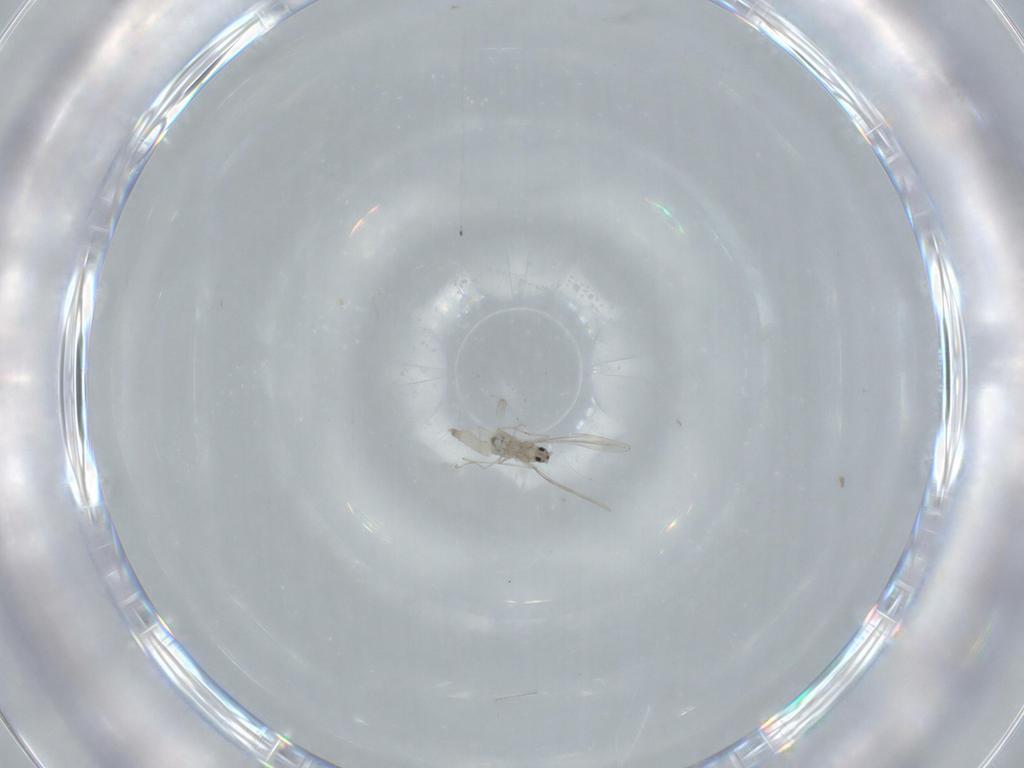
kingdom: Animalia
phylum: Arthropoda
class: Insecta
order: Diptera
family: Cecidomyiidae
